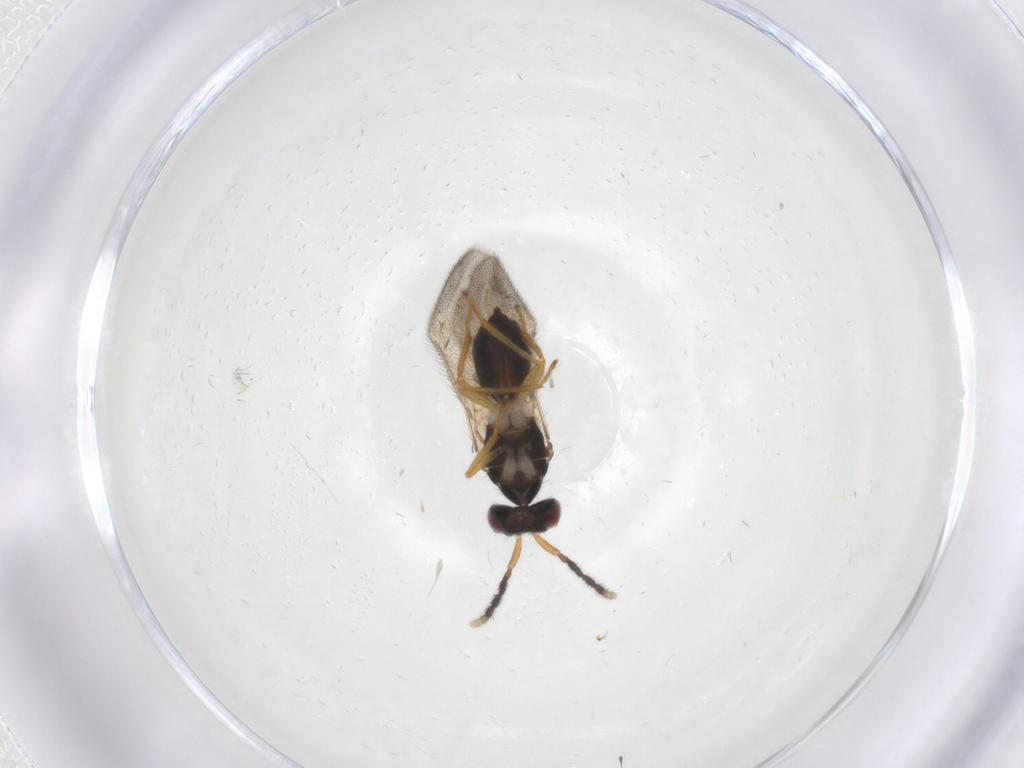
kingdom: Animalia
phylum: Arthropoda
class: Insecta
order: Hymenoptera
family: Eulophidae
